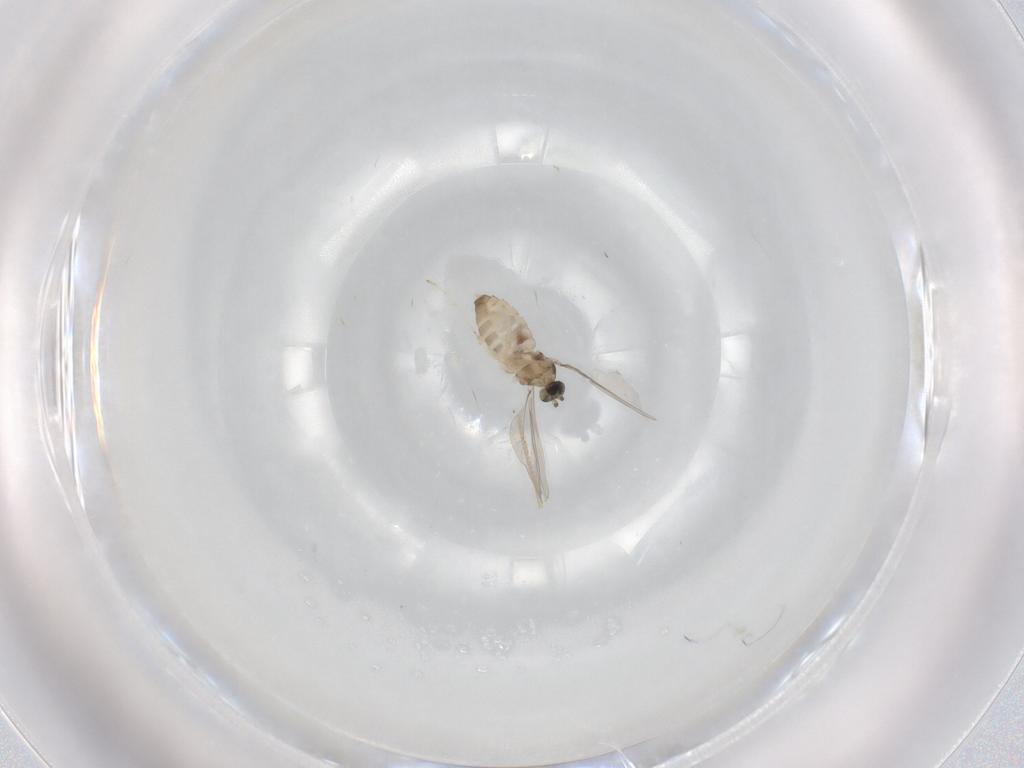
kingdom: Animalia
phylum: Arthropoda
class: Insecta
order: Diptera
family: Cecidomyiidae
